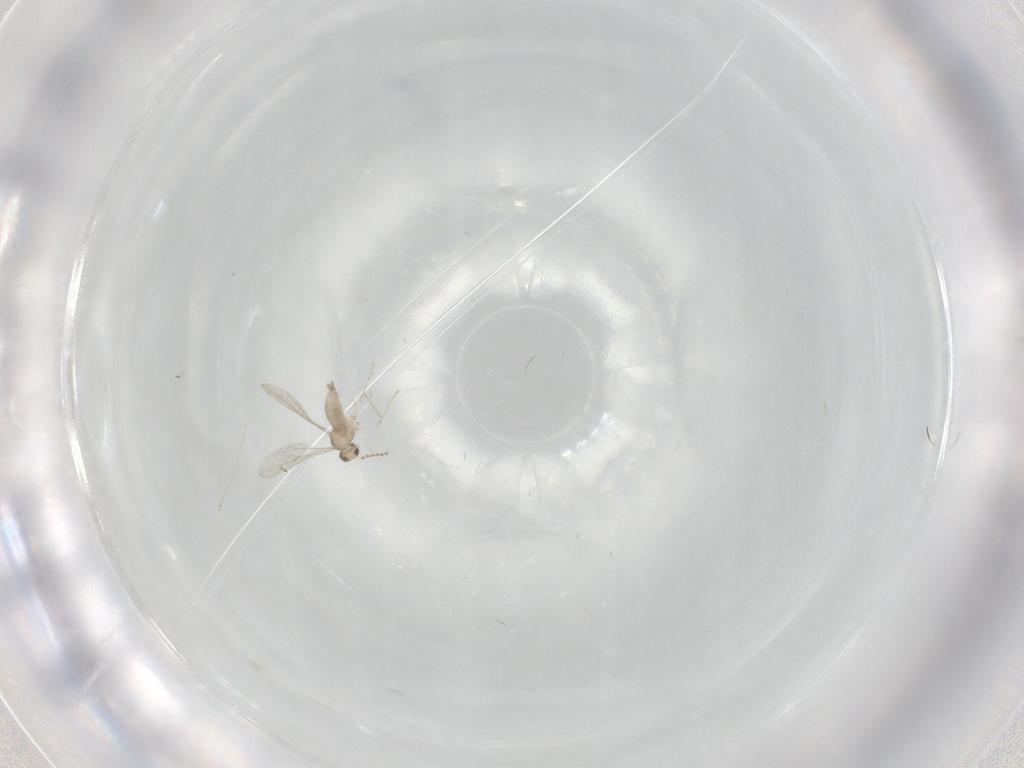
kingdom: Animalia
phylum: Arthropoda
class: Insecta
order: Diptera
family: Cecidomyiidae
